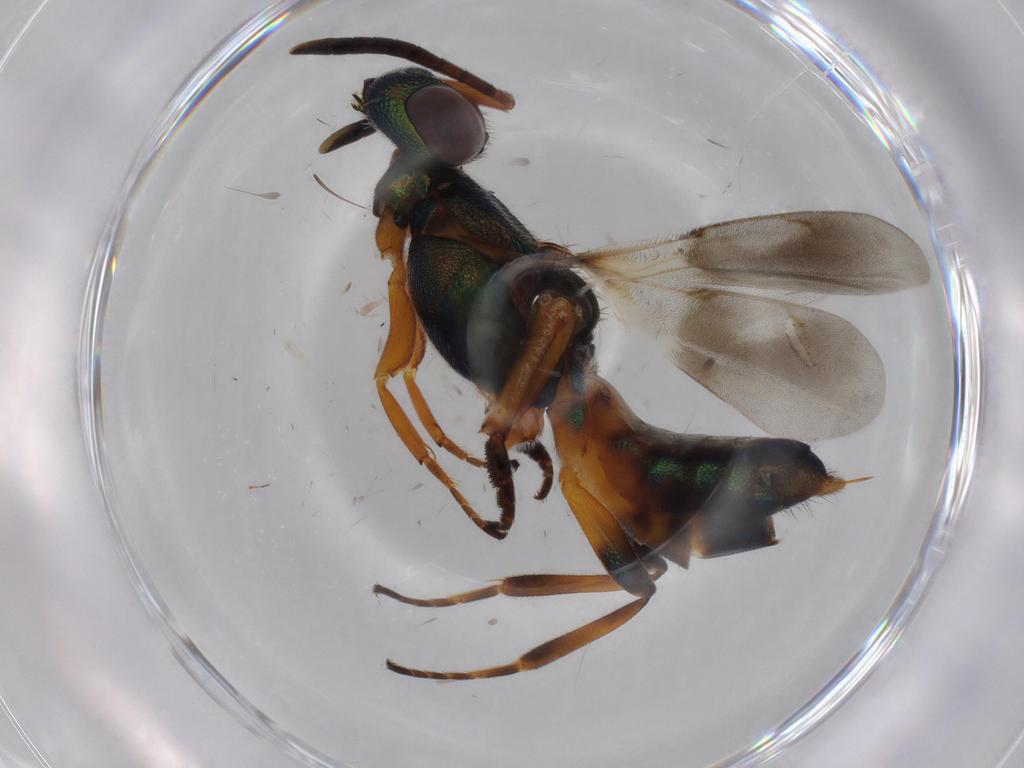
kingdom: Animalia
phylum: Arthropoda
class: Insecta
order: Hymenoptera
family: Eupelmidae
